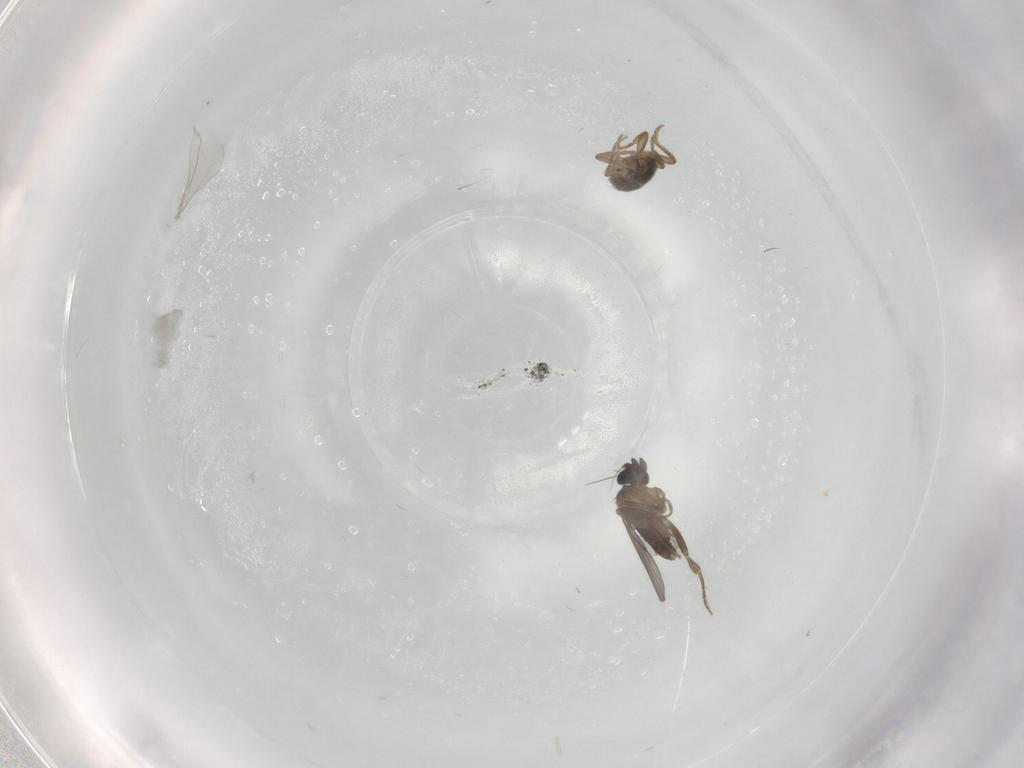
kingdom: Animalia
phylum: Arthropoda
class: Insecta
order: Diptera
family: Cecidomyiidae
